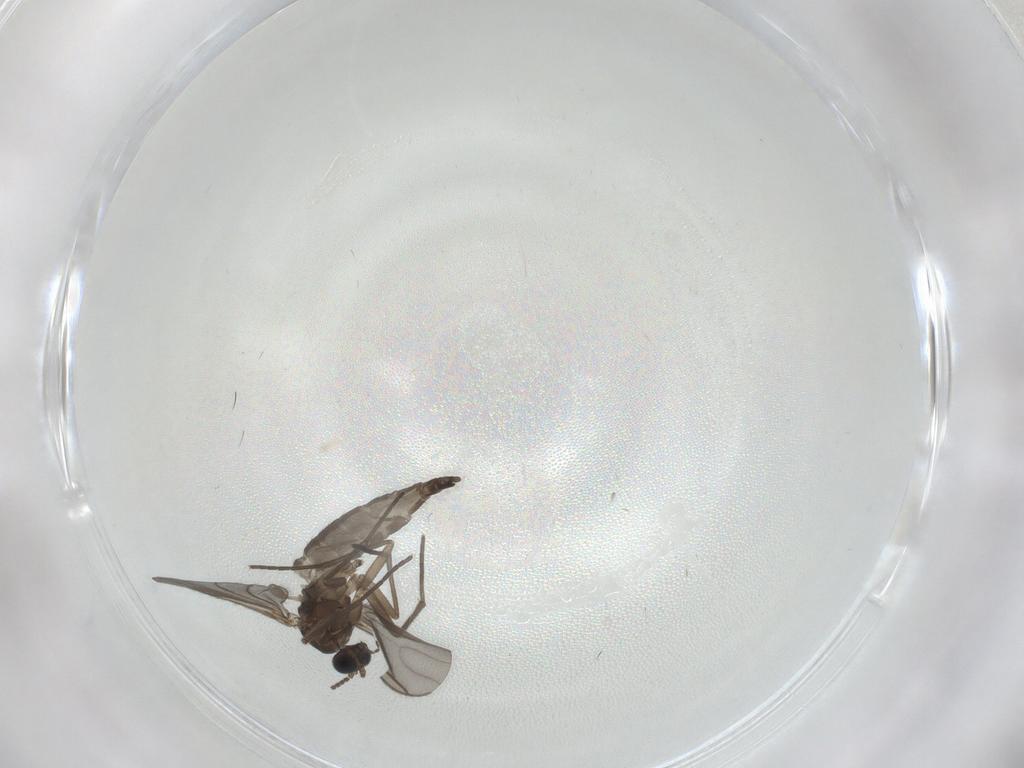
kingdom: Animalia
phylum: Arthropoda
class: Insecta
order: Diptera
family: Sciaridae
